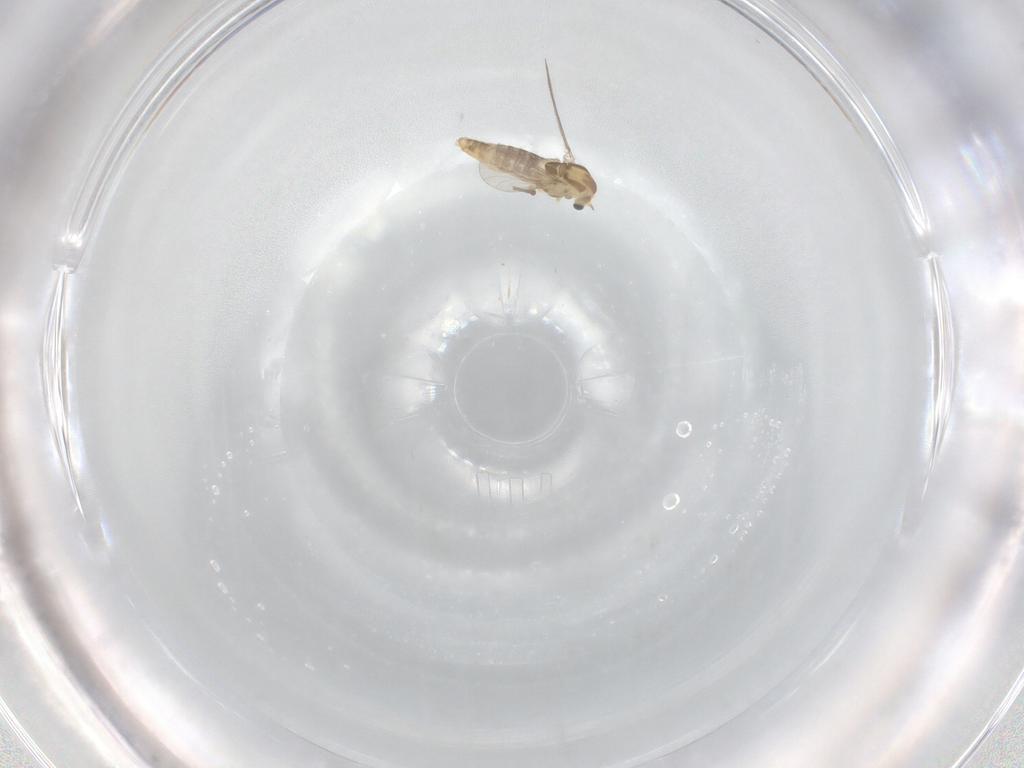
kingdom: Animalia
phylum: Arthropoda
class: Insecta
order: Diptera
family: Chironomidae
